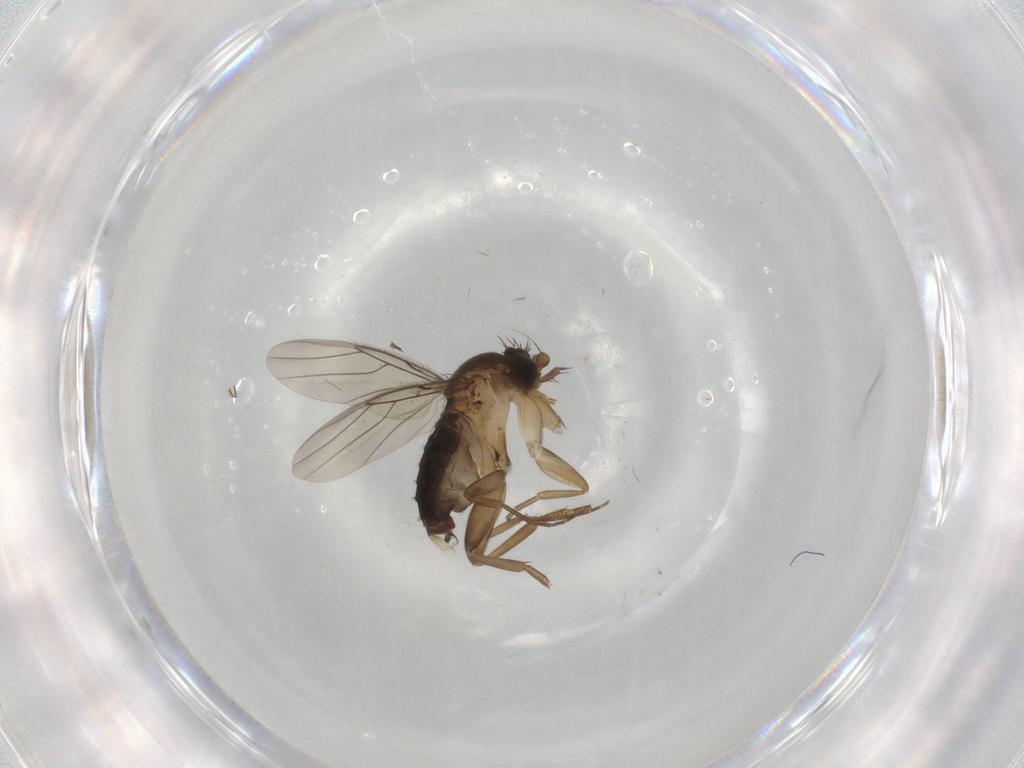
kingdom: Animalia
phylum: Arthropoda
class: Insecta
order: Diptera
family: Phoridae
